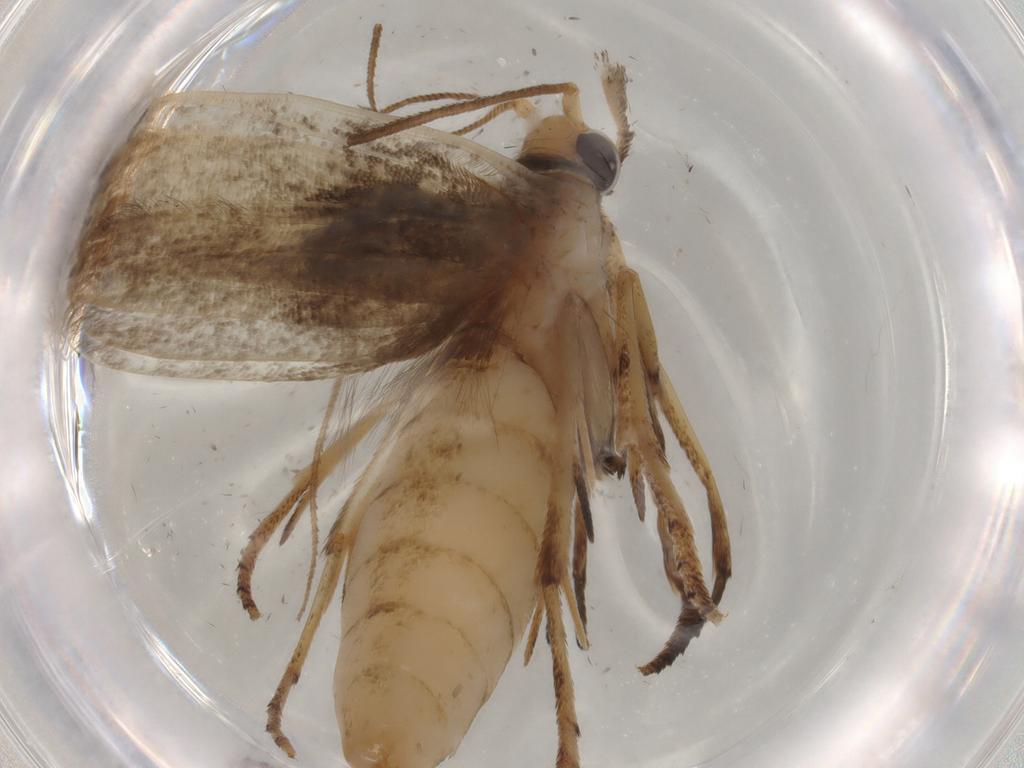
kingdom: Animalia
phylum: Arthropoda
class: Insecta
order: Lepidoptera
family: Yponomeutidae
